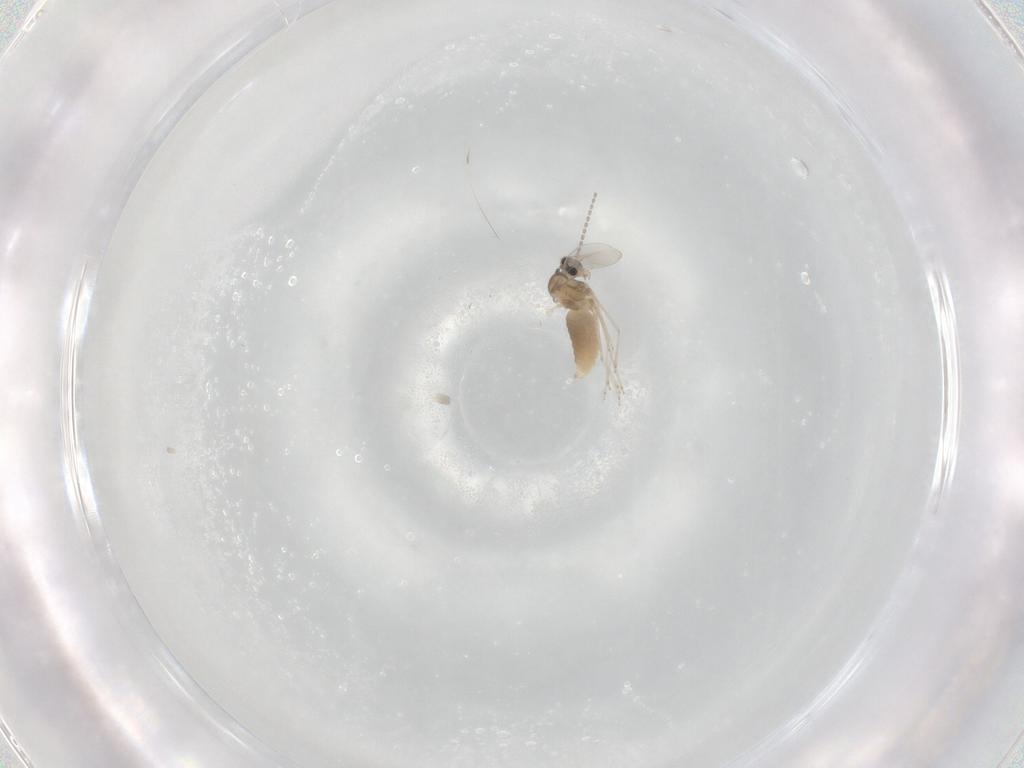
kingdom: Animalia
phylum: Arthropoda
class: Insecta
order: Diptera
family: Cecidomyiidae
